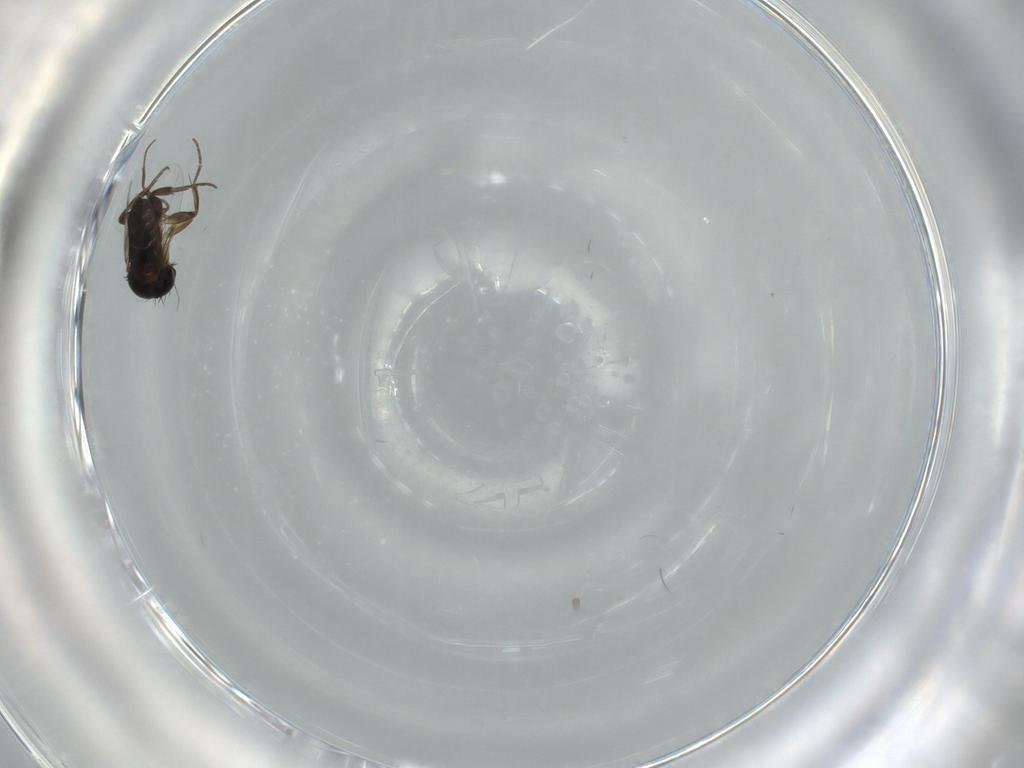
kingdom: Animalia
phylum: Arthropoda
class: Insecta
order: Diptera
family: Phoridae
